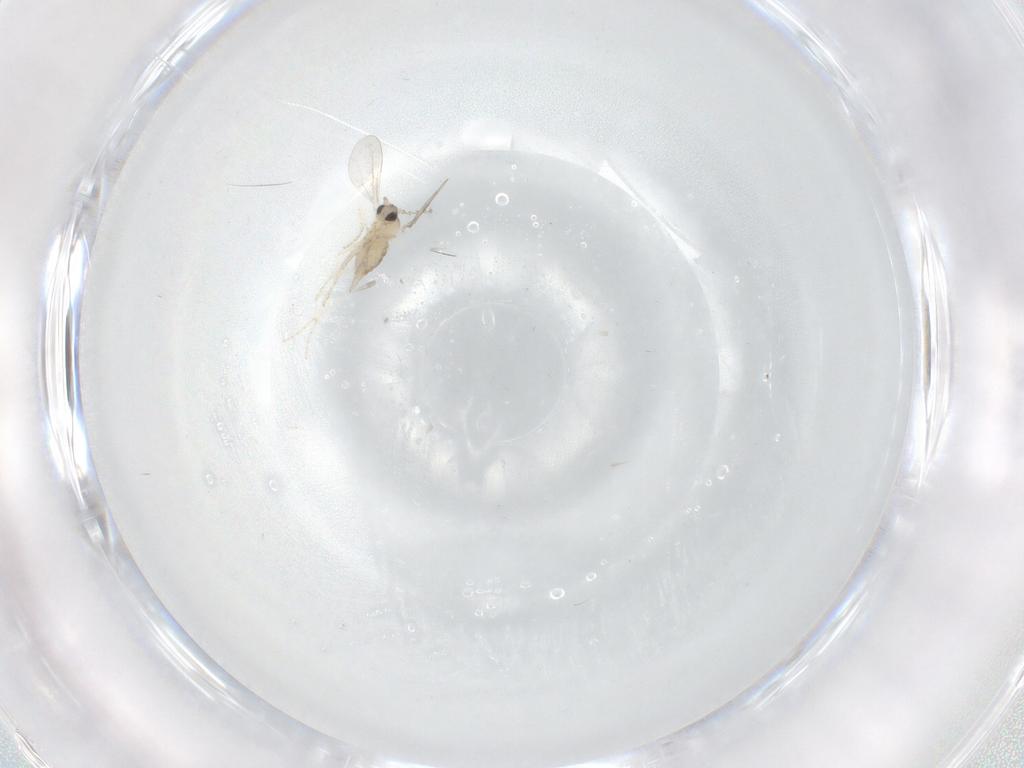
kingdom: Animalia
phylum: Arthropoda
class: Insecta
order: Diptera
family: Cecidomyiidae
